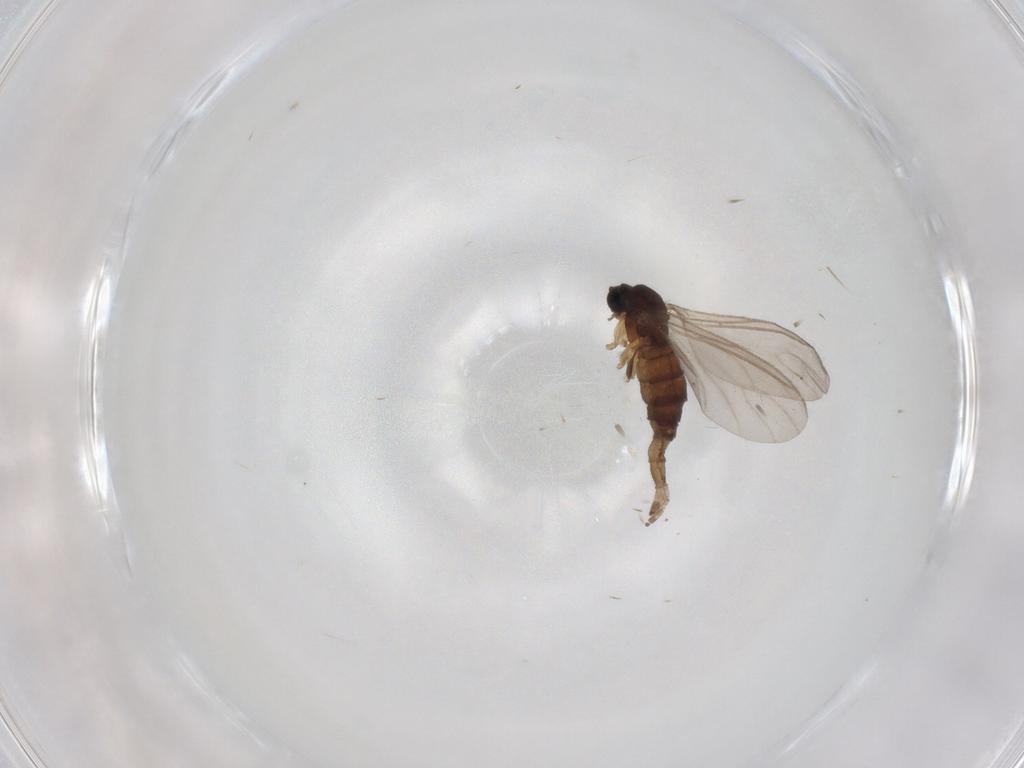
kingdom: Animalia
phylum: Arthropoda
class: Insecta
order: Diptera
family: Sciaridae
